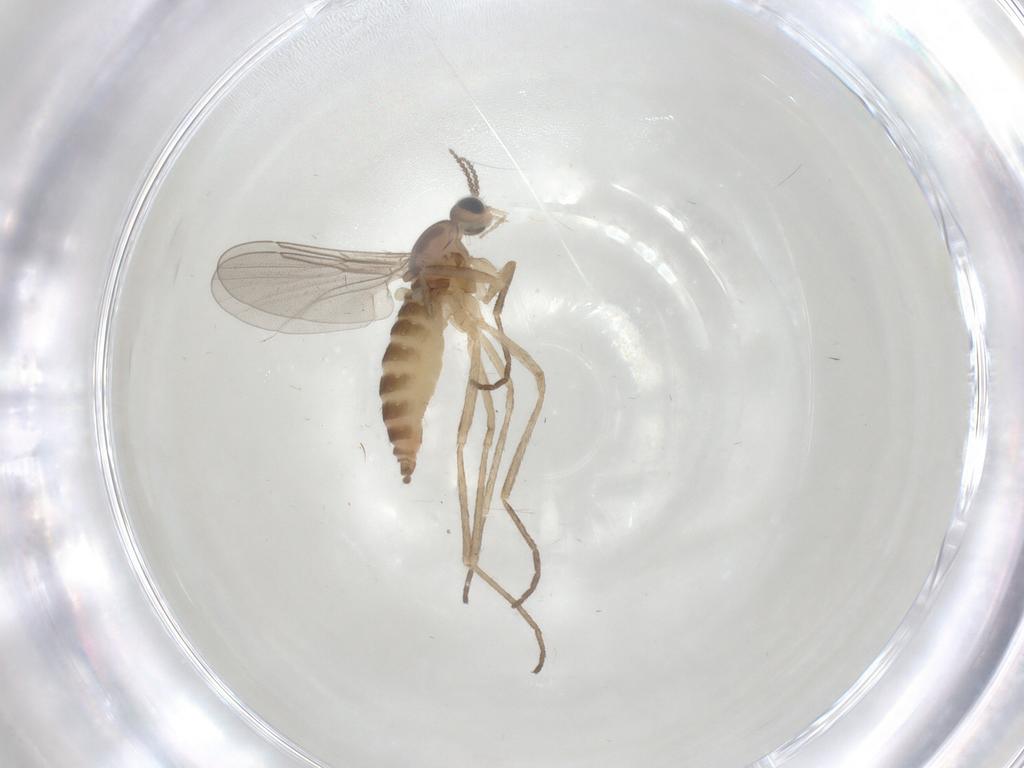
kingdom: Animalia
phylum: Arthropoda
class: Insecta
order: Diptera
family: Cecidomyiidae
